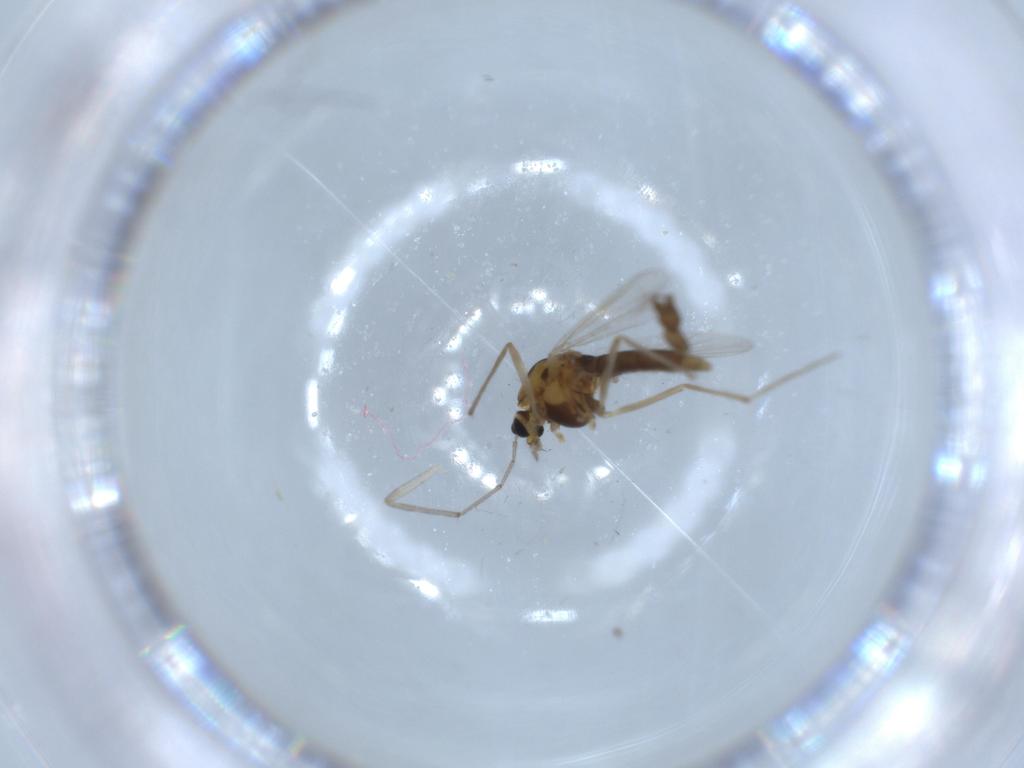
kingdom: Animalia
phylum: Arthropoda
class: Insecta
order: Diptera
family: Chironomidae
